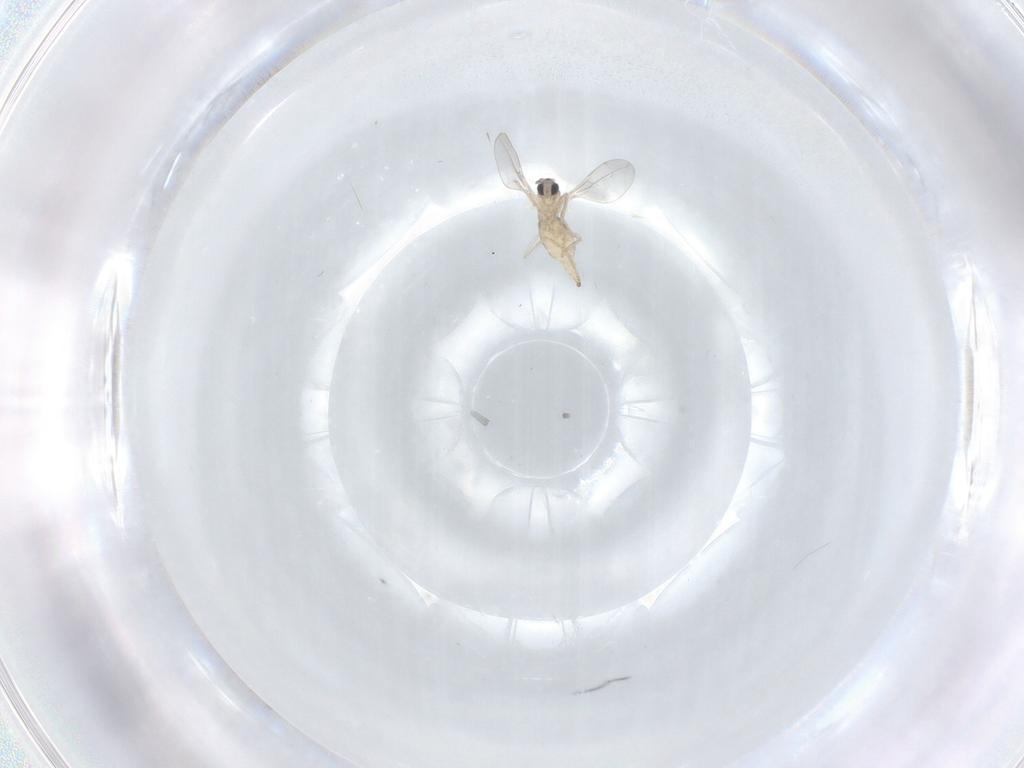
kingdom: Animalia
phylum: Arthropoda
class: Insecta
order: Diptera
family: Cecidomyiidae
